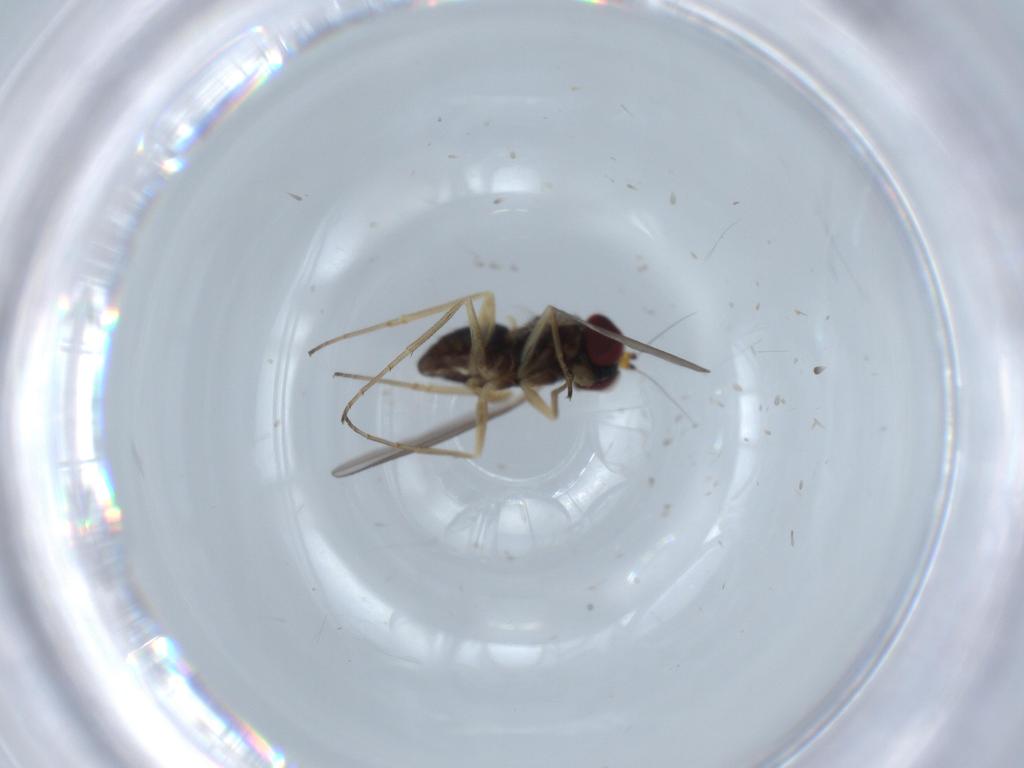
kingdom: Animalia
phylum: Arthropoda
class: Insecta
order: Diptera
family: Dolichopodidae
